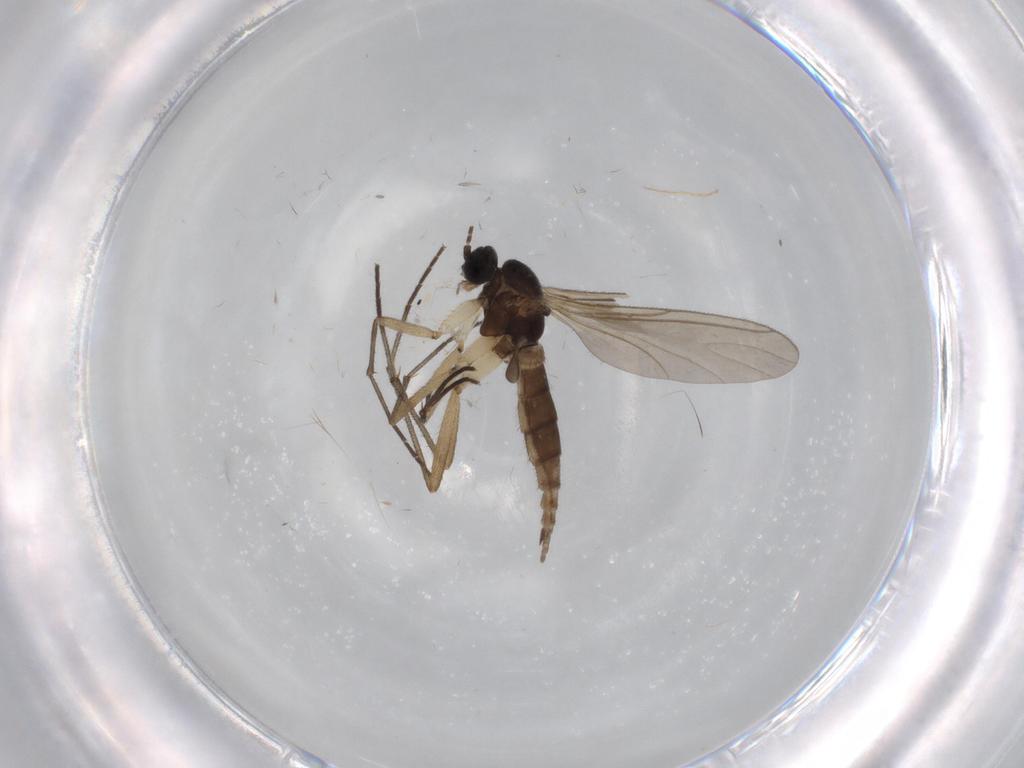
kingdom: Animalia
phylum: Arthropoda
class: Insecta
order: Diptera
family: Sciaridae
